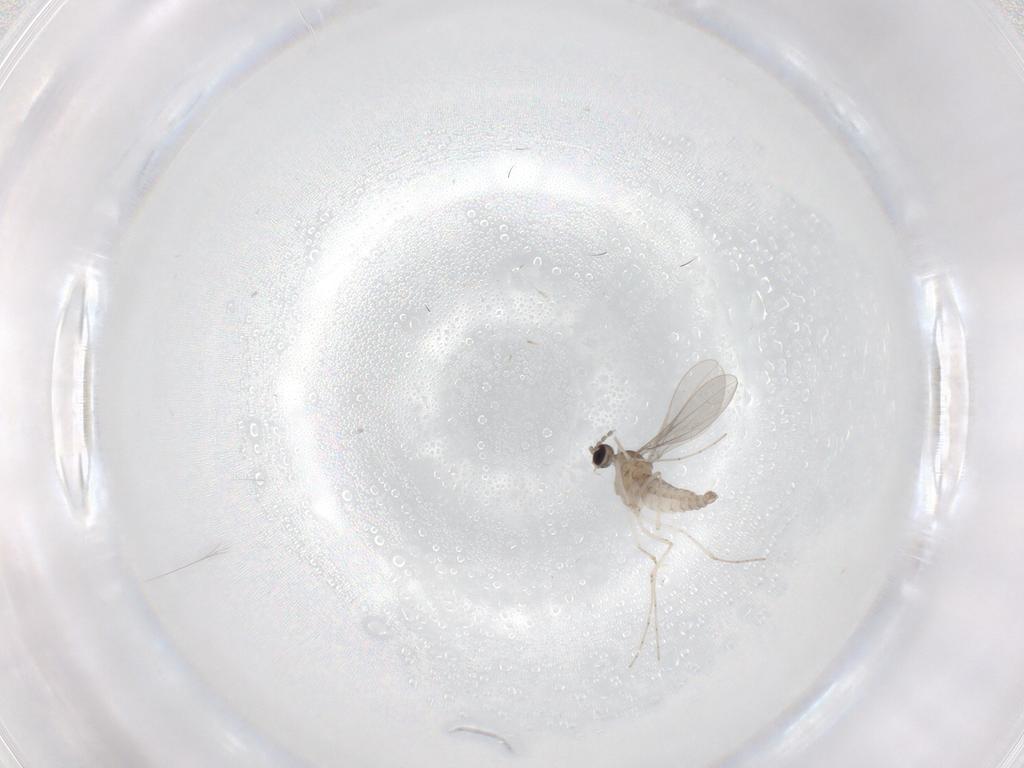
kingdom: Animalia
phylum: Arthropoda
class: Insecta
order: Diptera
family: Cecidomyiidae
